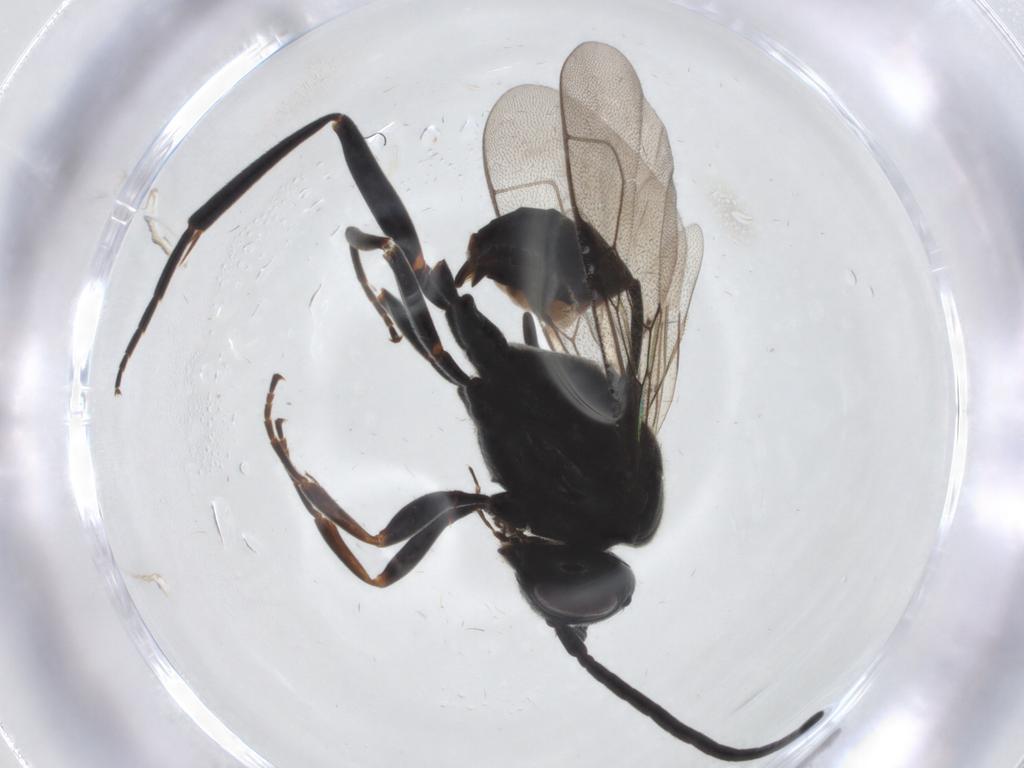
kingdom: Animalia
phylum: Arthropoda
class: Insecta
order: Hymenoptera
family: Evaniidae
